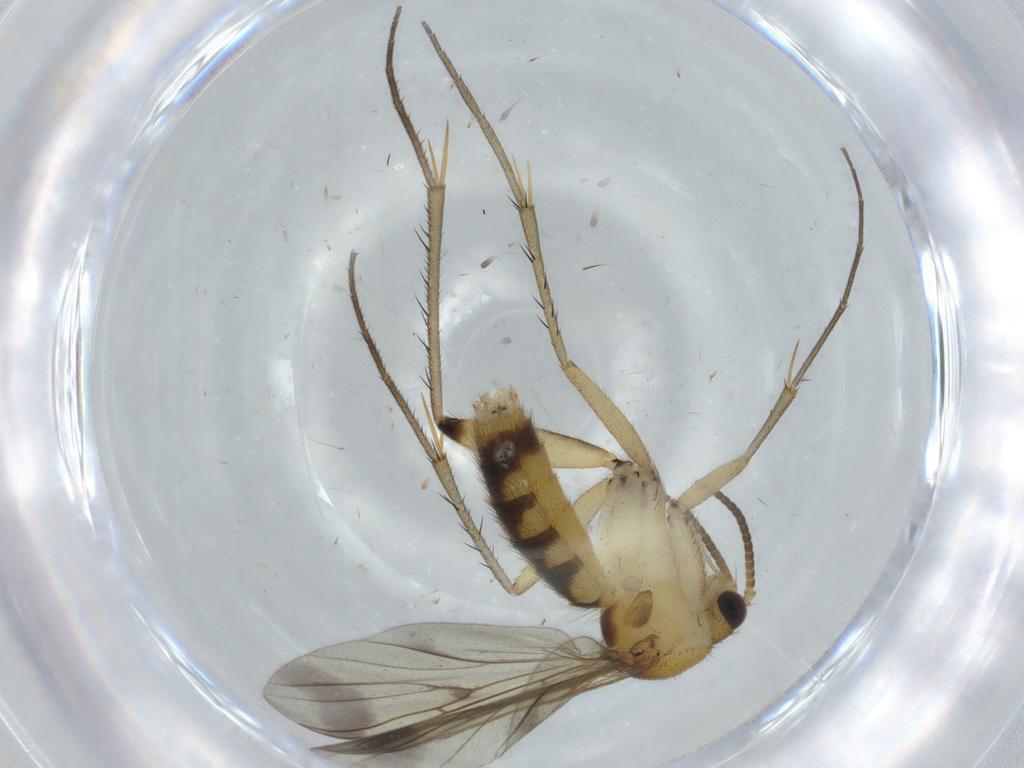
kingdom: Animalia
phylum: Arthropoda
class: Insecta
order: Diptera
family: Mycetophilidae
